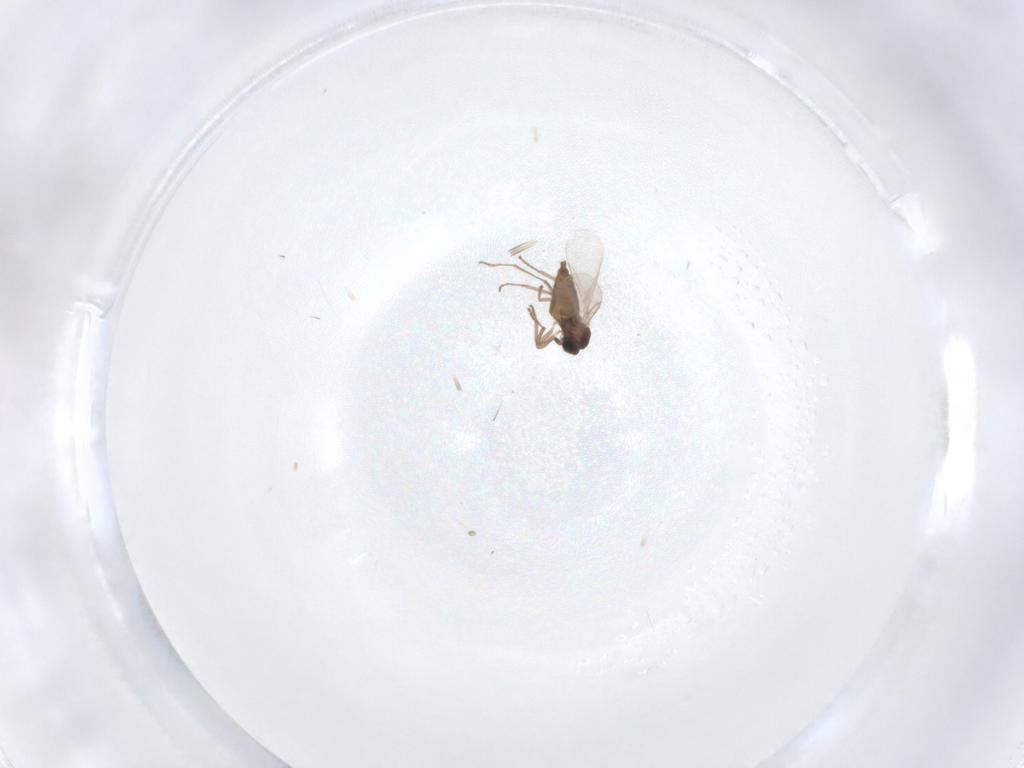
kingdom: Animalia
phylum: Arthropoda
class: Insecta
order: Diptera
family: Cecidomyiidae
